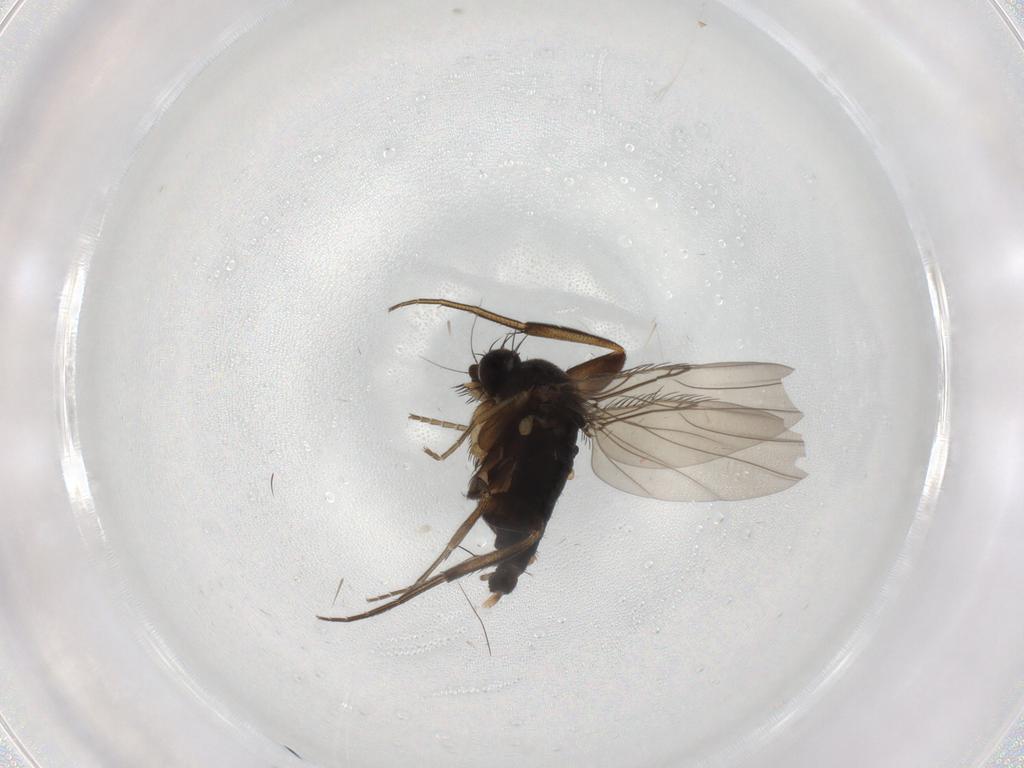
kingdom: Animalia
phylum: Arthropoda
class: Insecta
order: Diptera
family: Phoridae
